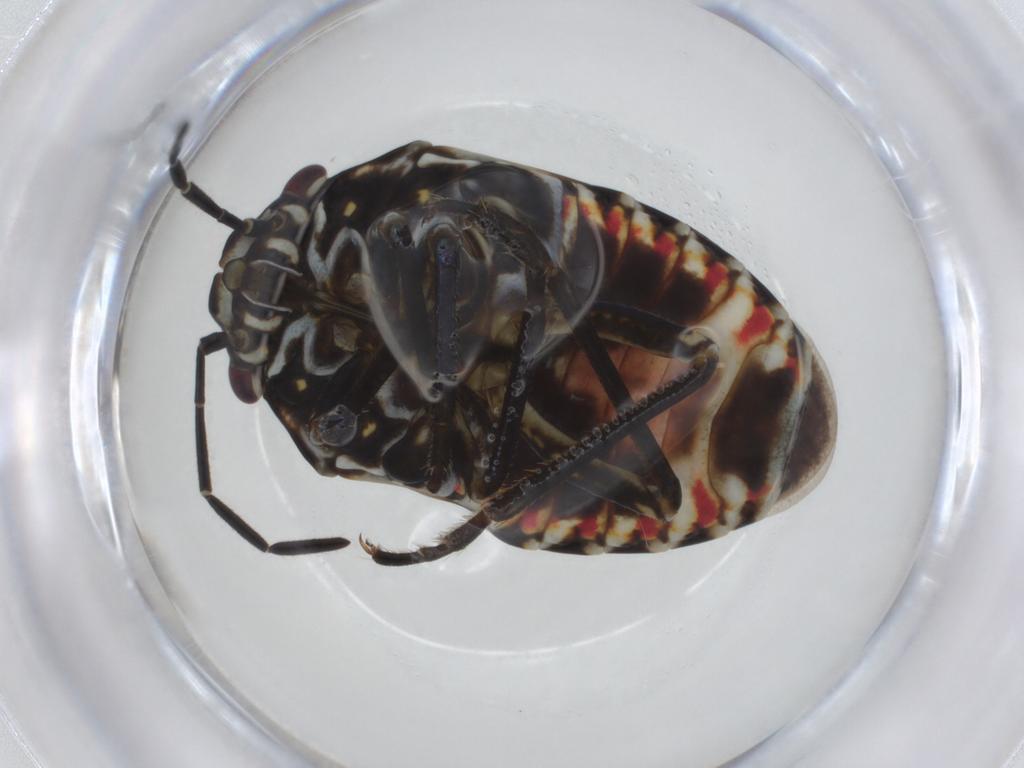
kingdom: Animalia
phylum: Arthropoda
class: Insecta
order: Hemiptera
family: Pentatomidae
